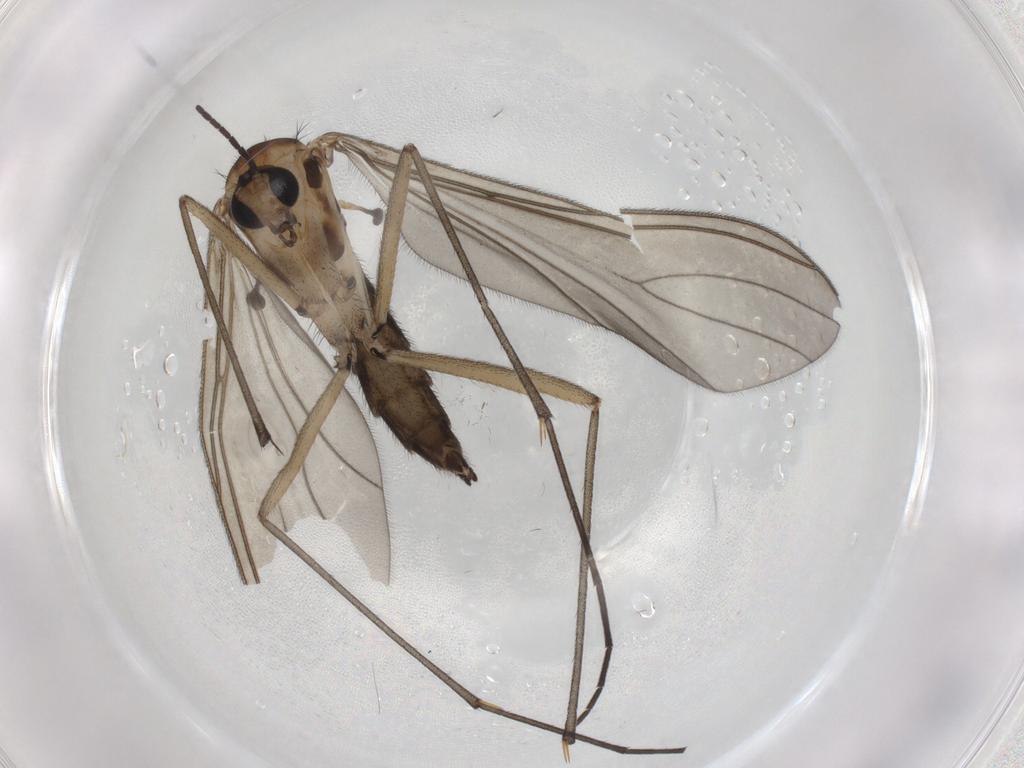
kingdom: Animalia
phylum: Arthropoda
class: Insecta
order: Diptera
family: Sciaridae
